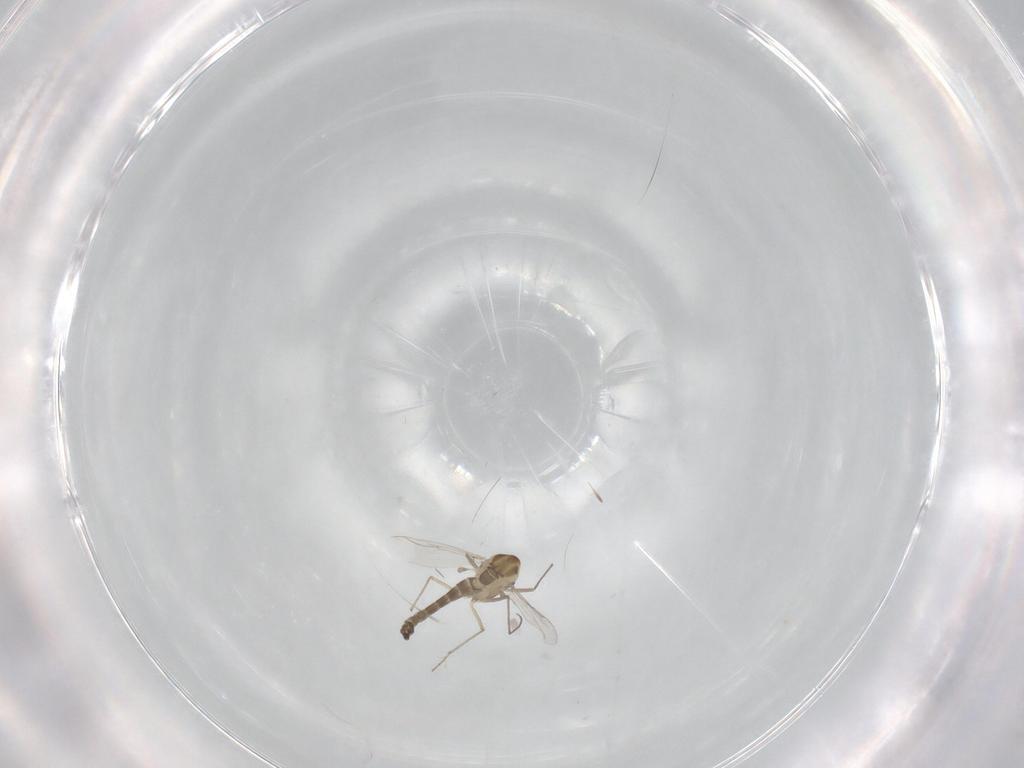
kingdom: Animalia
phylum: Arthropoda
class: Insecta
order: Diptera
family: Chironomidae
